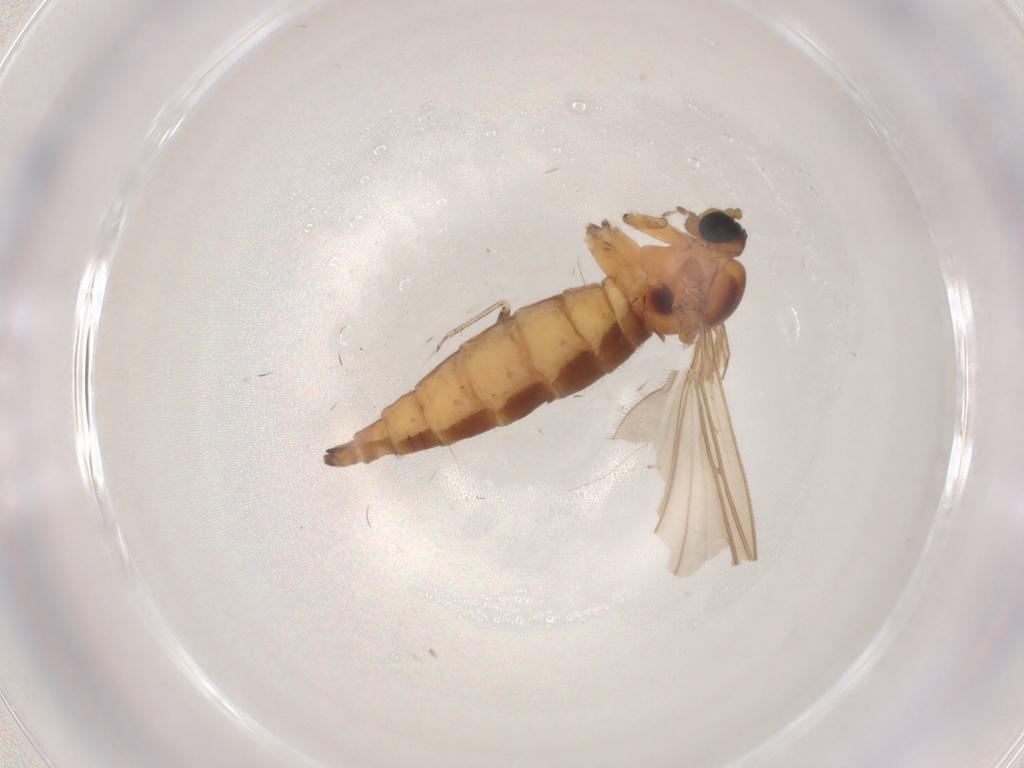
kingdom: Animalia
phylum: Arthropoda
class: Insecta
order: Diptera
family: Sciaridae
